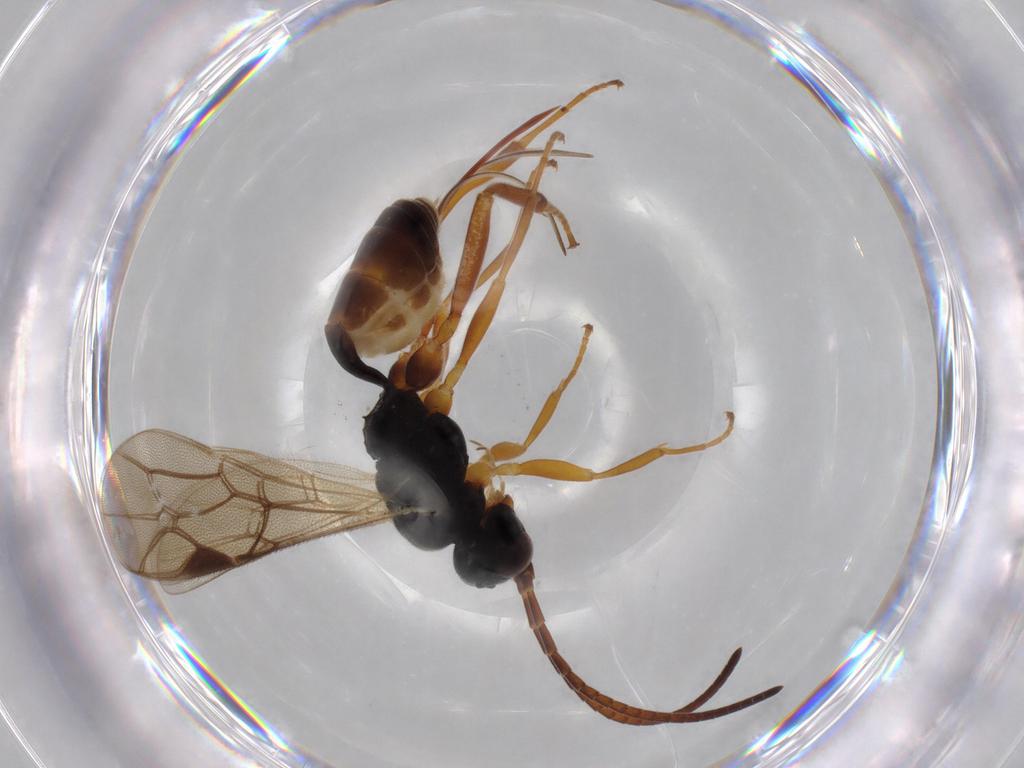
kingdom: Animalia
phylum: Arthropoda
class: Insecta
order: Hymenoptera
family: Ichneumonidae
